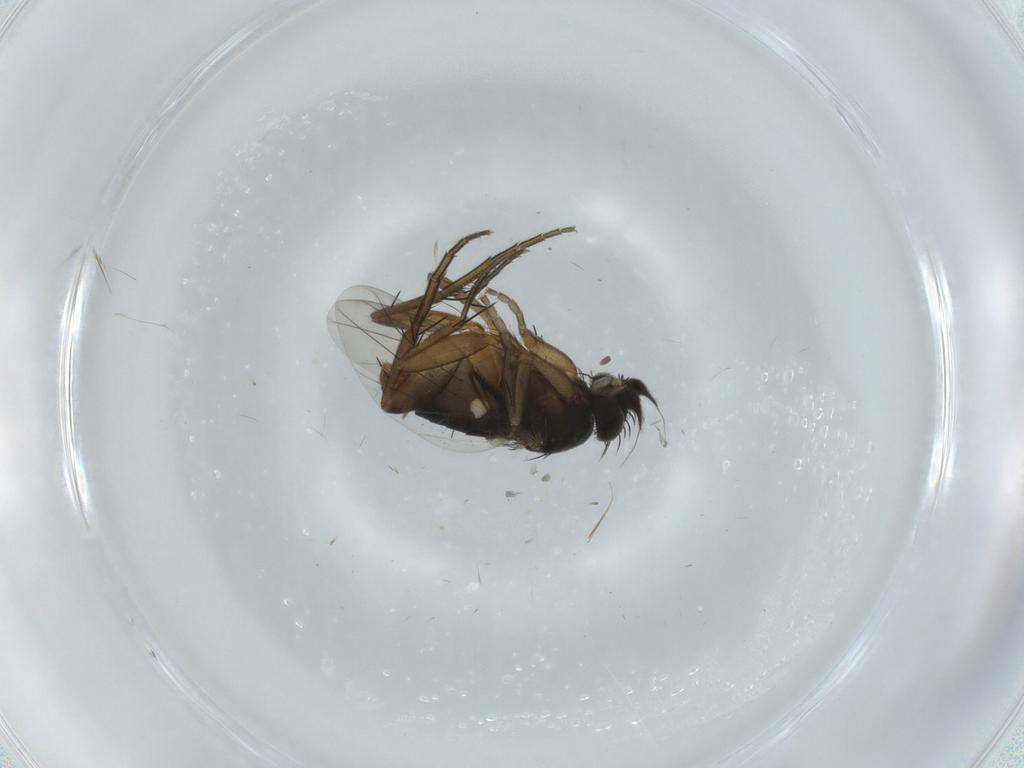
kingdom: Animalia
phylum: Arthropoda
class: Insecta
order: Diptera
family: Phoridae
